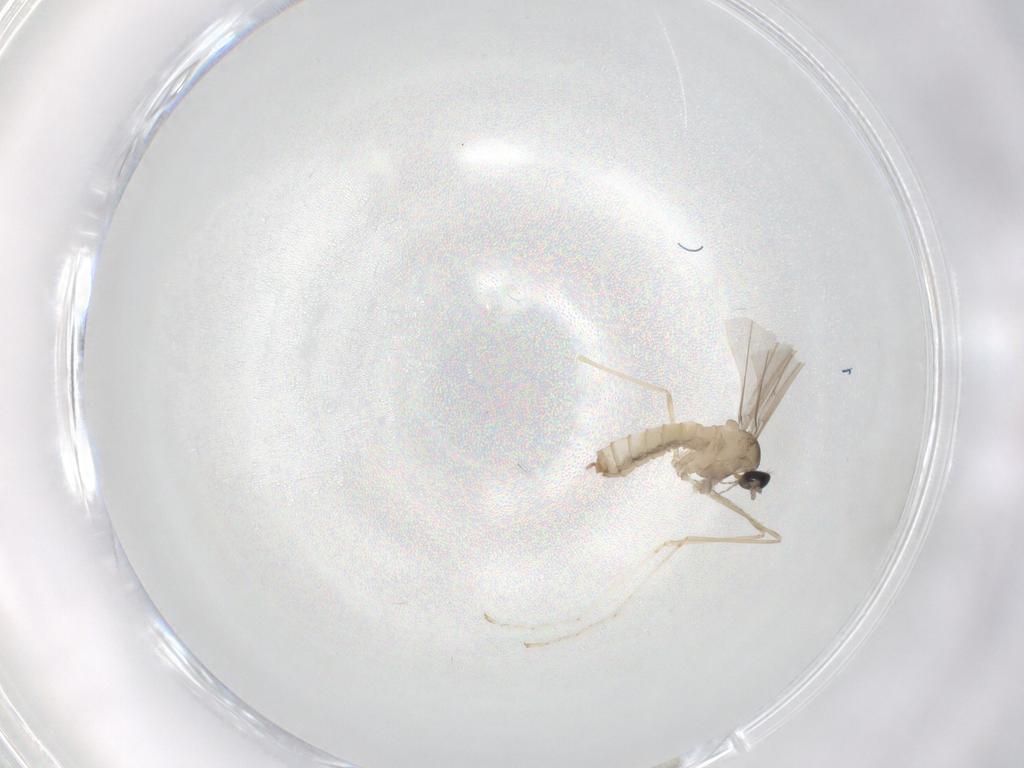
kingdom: Animalia
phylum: Arthropoda
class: Insecta
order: Diptera
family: Cecidomyiidae
